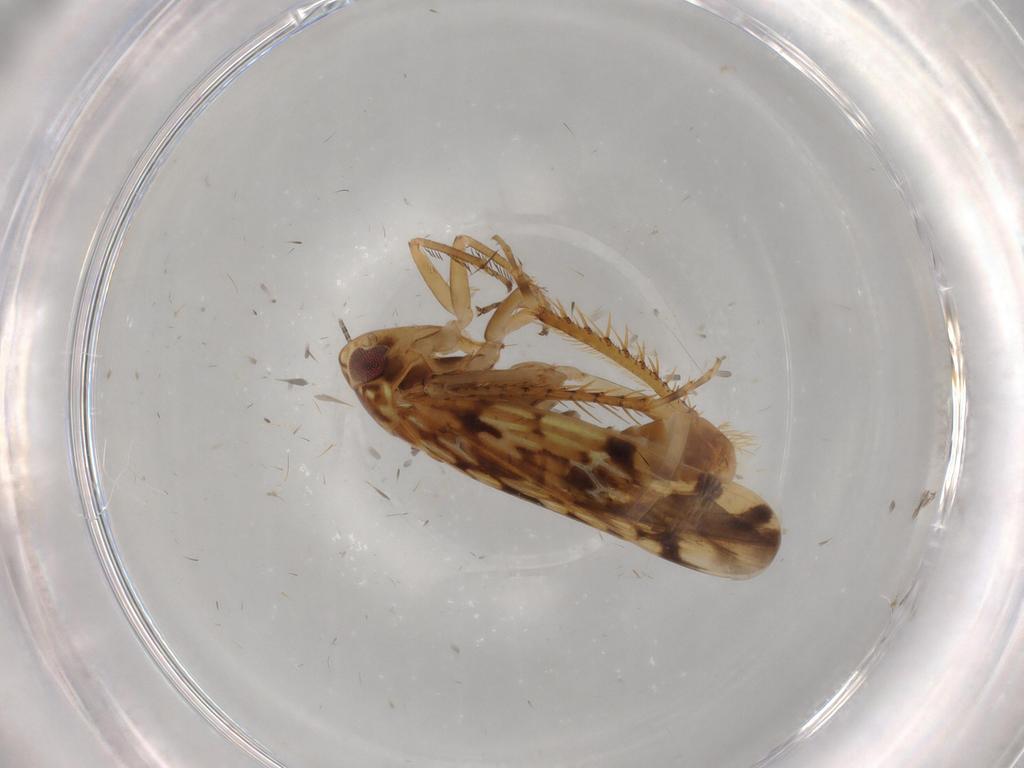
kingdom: Animalia
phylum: Arthropoda
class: Insecta
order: Hemiptera
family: Cicadellidae
